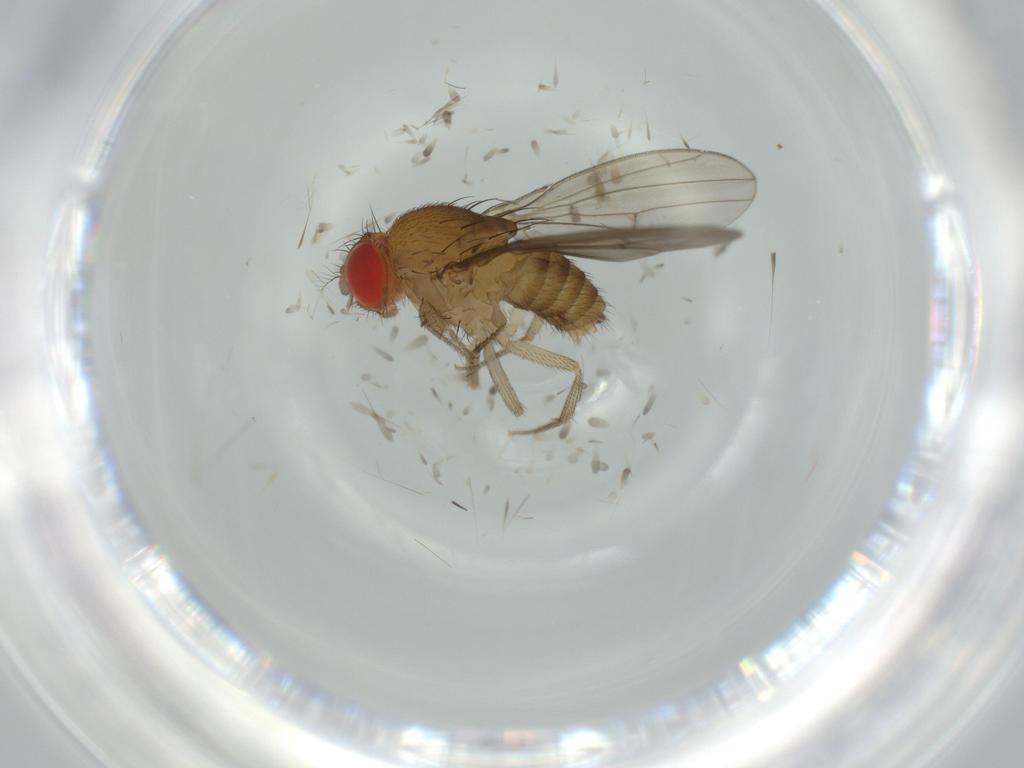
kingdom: Animalia
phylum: Arthropoda
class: Insecta
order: Diptera
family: Drosophilidae
